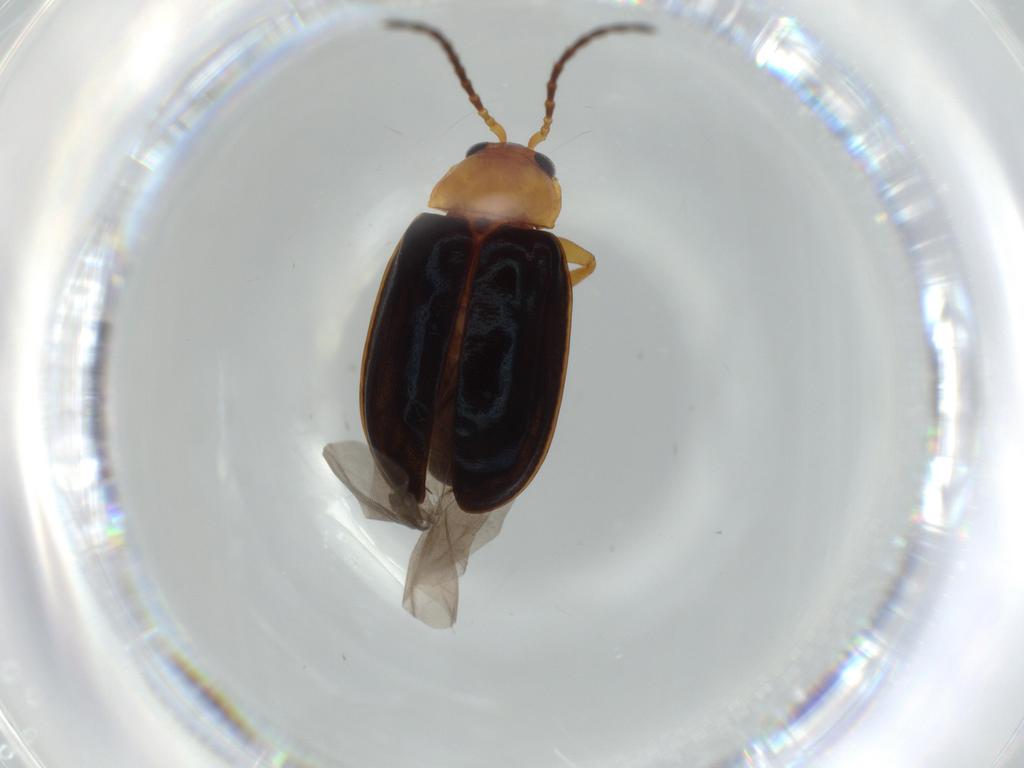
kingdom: Animalia
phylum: Arthropoda
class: Insecta
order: Coleoptera
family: Chrysomelidae
